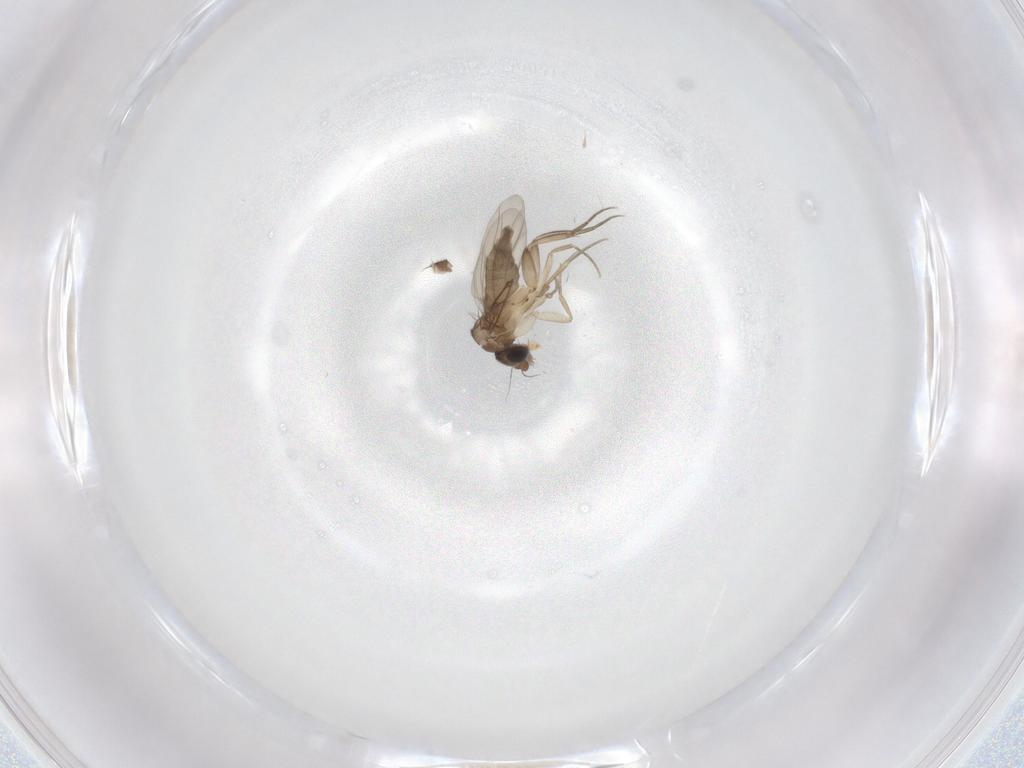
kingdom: Animalia
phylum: Arthropoda
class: Insecta
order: Diptera
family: Phoridae
